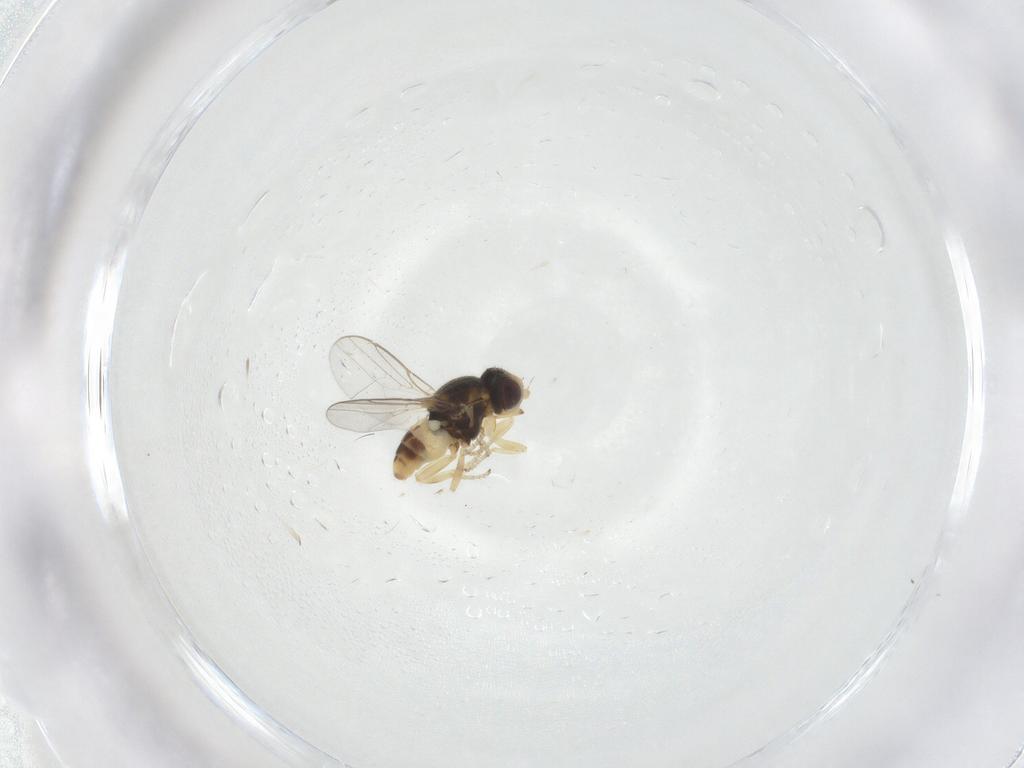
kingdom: Animalia
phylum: Arthropoda
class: Insecta
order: Diptera
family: Chloropidae
